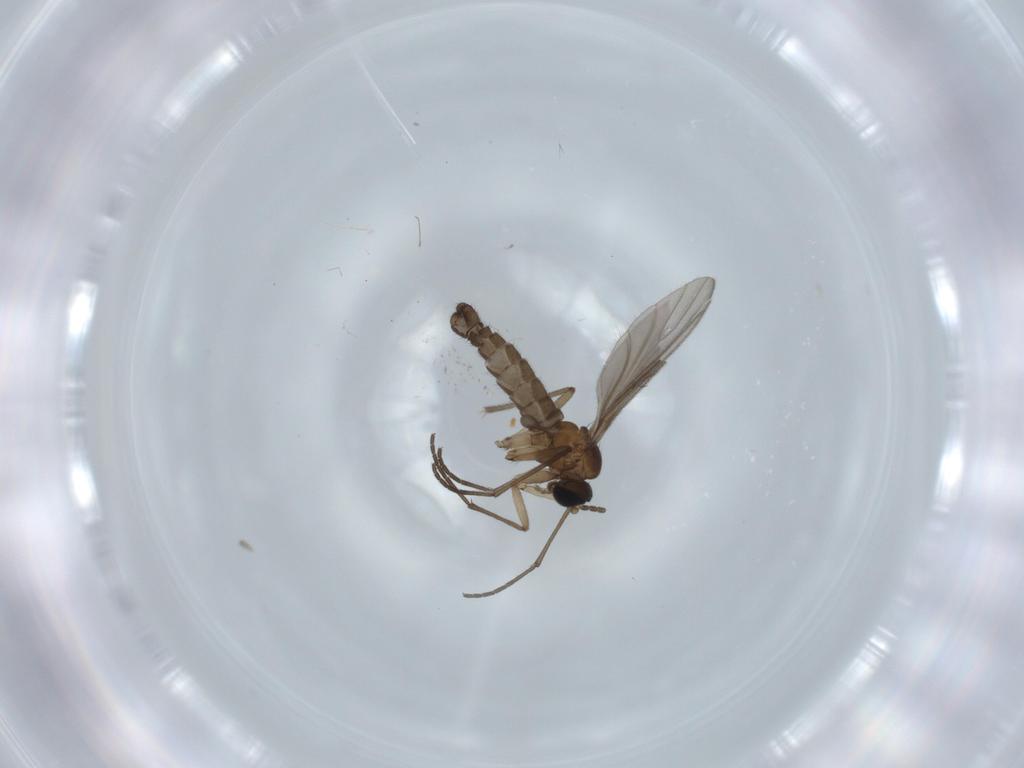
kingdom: Animalia
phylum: Arthropoda
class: Insecta
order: Diptera
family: Sciaridae
